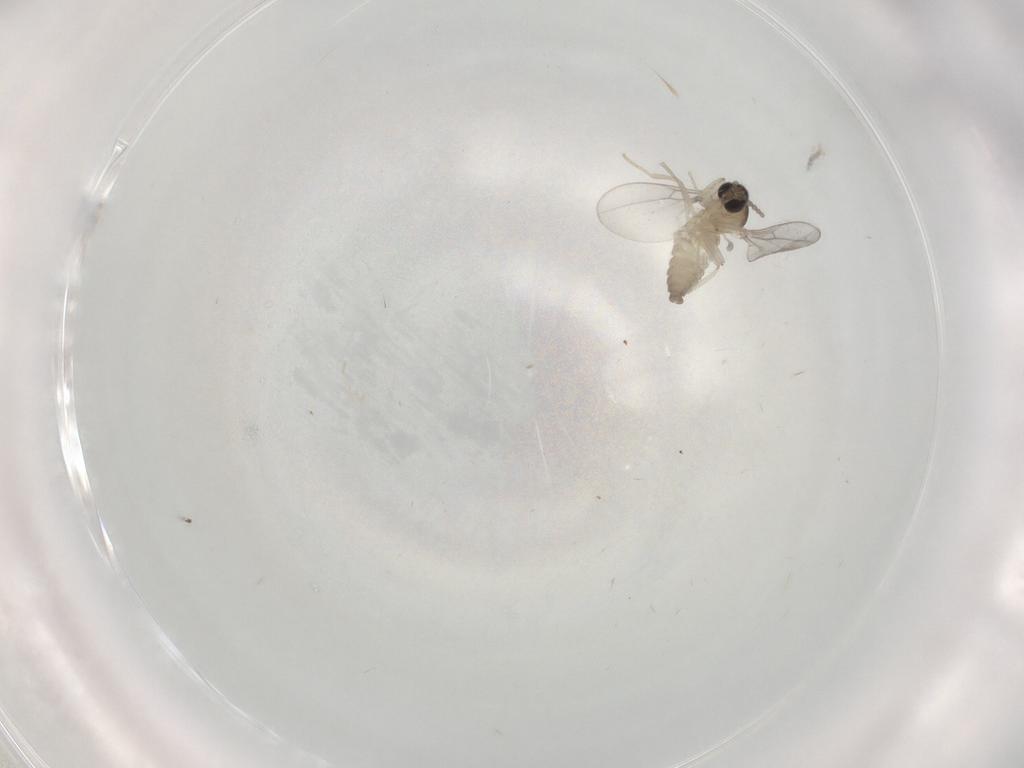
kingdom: Animalia
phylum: Arthropoda
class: Insecta
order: Diptera
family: Cecidomyiidae
